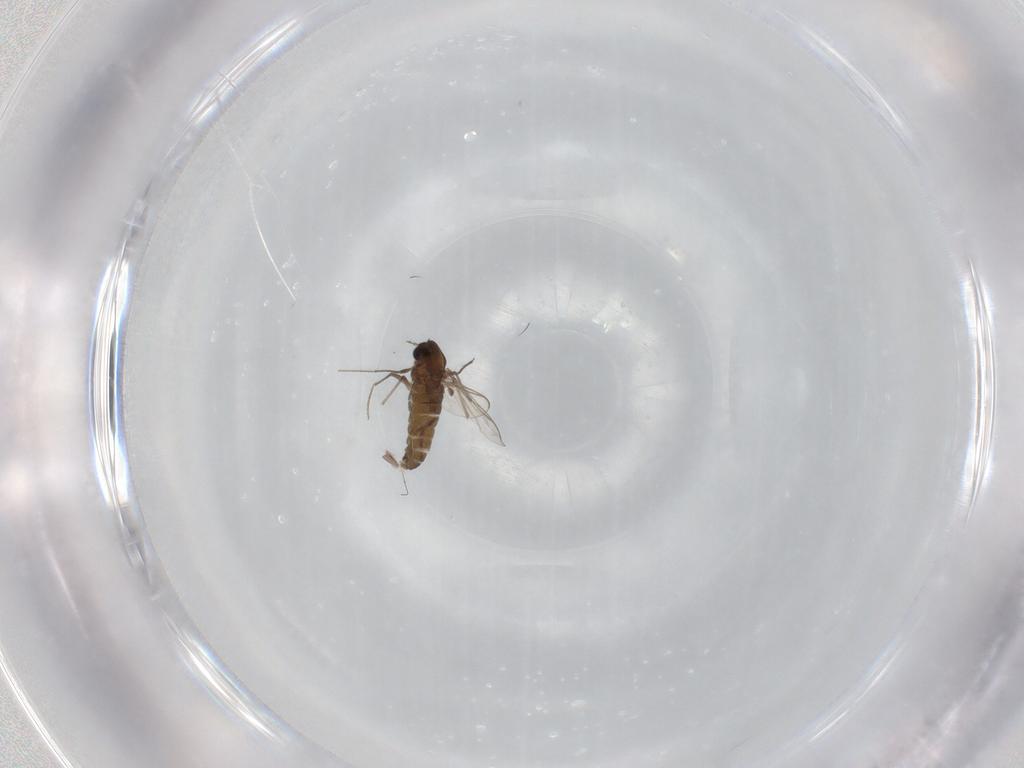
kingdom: Animalia
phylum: Arthropoda
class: Insecta
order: Diptera
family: Chironomidae
